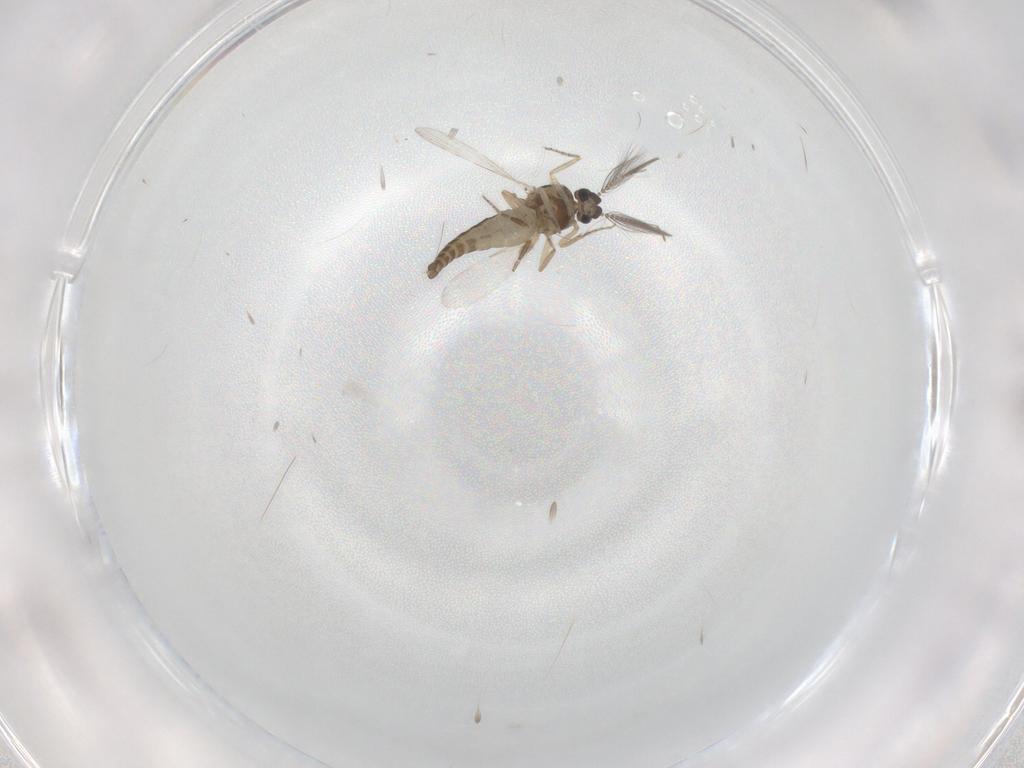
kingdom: Animalia
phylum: Arthropoda
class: Insecta
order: Diptera
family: Ceratopogonidae
